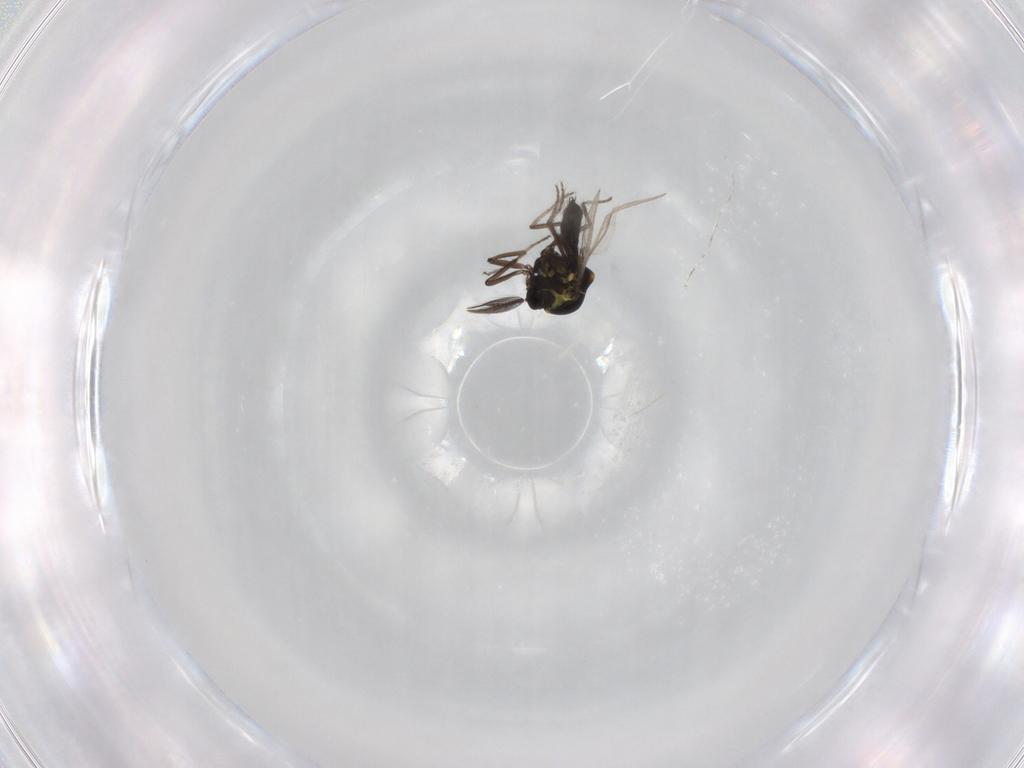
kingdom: Animalia
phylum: Arthropoda
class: Insecta
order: Diptera
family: Ceratopogonidae
